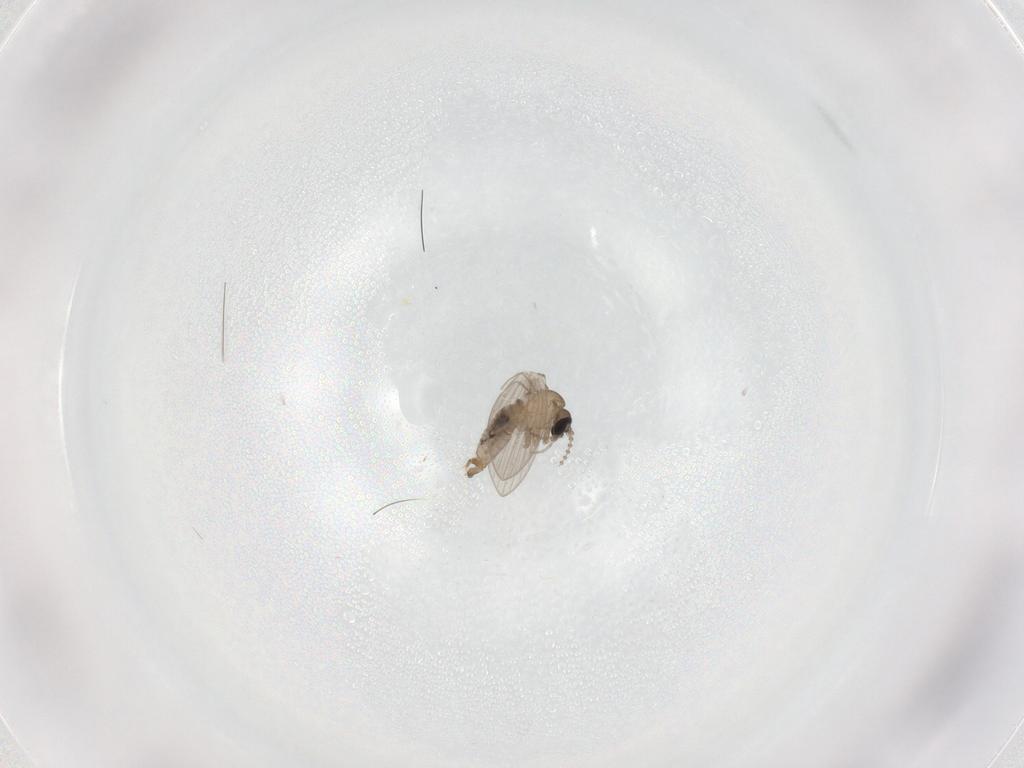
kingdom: Animalia
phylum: Arthropoda
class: Insecta
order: Diptera
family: Psychodidae
